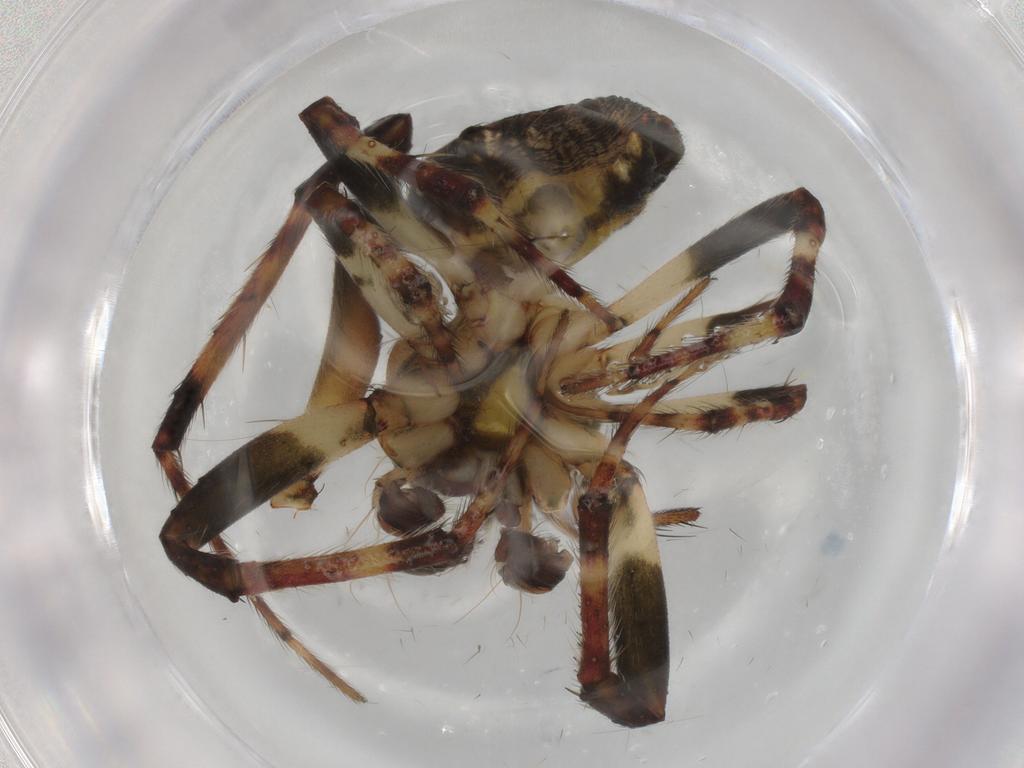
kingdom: Animalia
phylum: Arthropoda
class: Arachnida
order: Araneae
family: Araneidae
